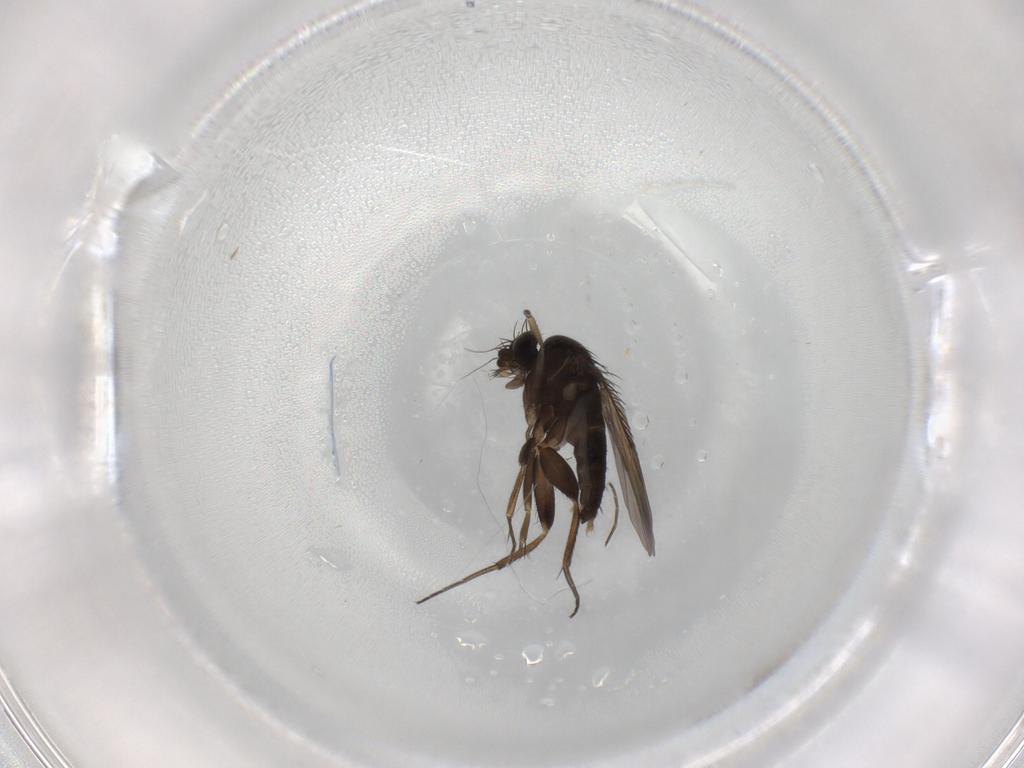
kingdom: Animalia
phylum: Arthropoda
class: Insecta
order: Diptera
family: Phoridae
